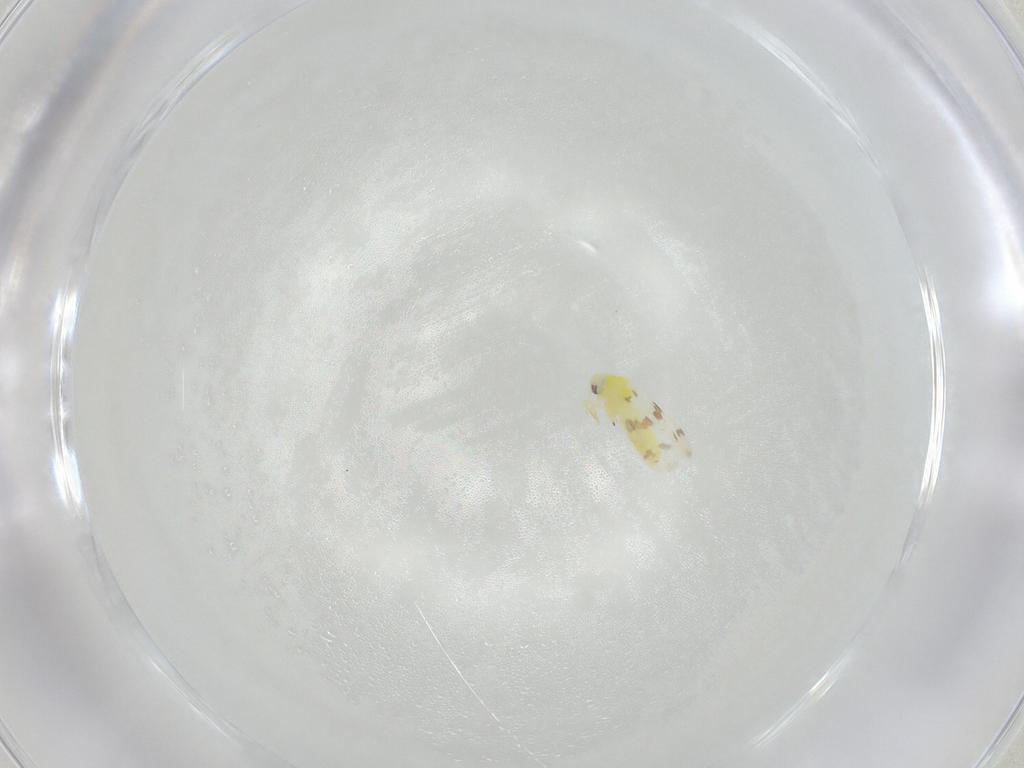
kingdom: Animalia
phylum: Arthropoda
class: Insecta
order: Hemiptera
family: Aleyrodidae
